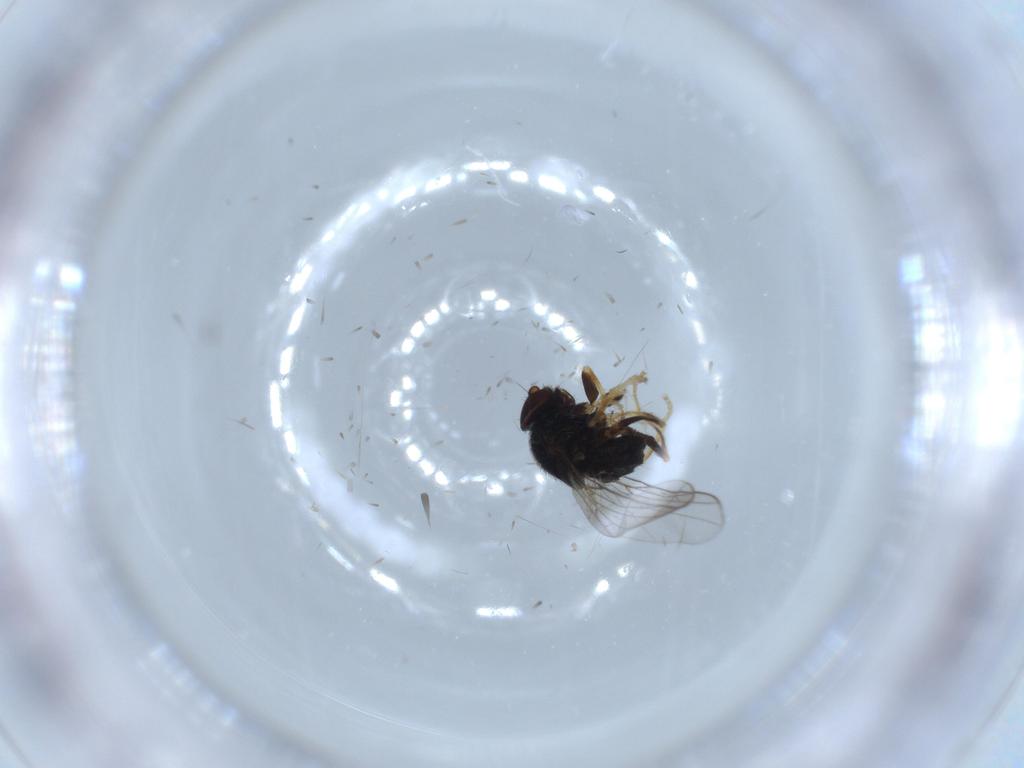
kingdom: Animalia
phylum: Arthropoda
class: Insecta
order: Diptera
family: Chloropidae
